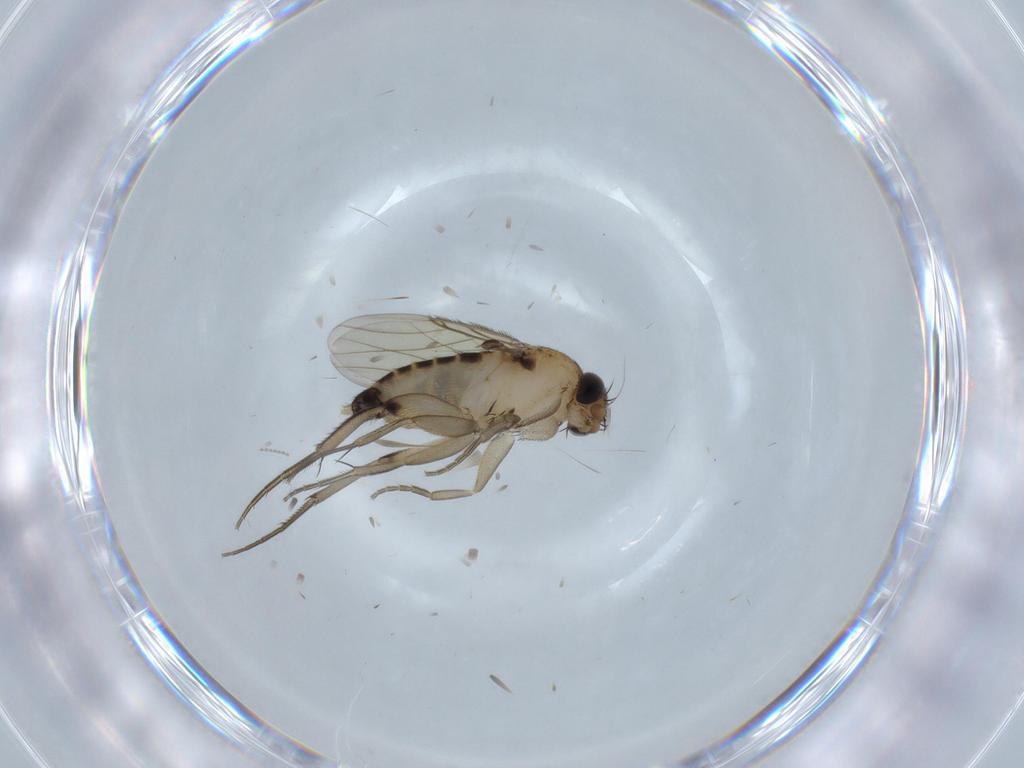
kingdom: Animalia
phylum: Arthropoda
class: Insecta
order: Diptera
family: Phoridae
